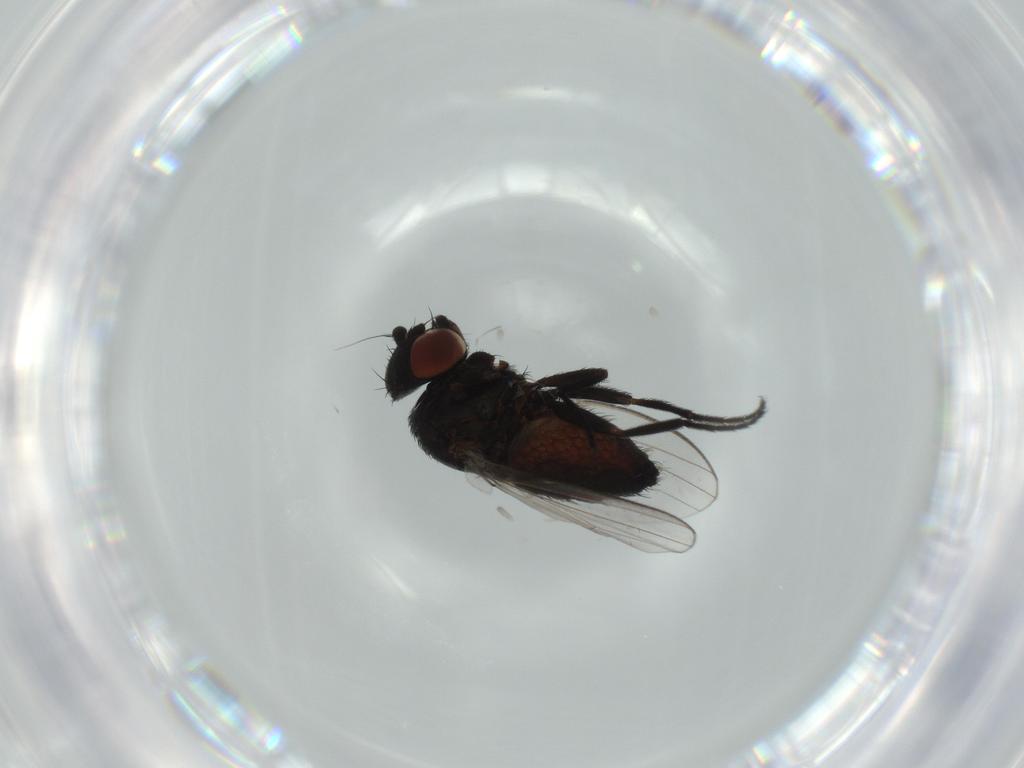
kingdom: Animalia
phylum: Arthropoda
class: Insecta
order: Diptera
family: Milichiidae
